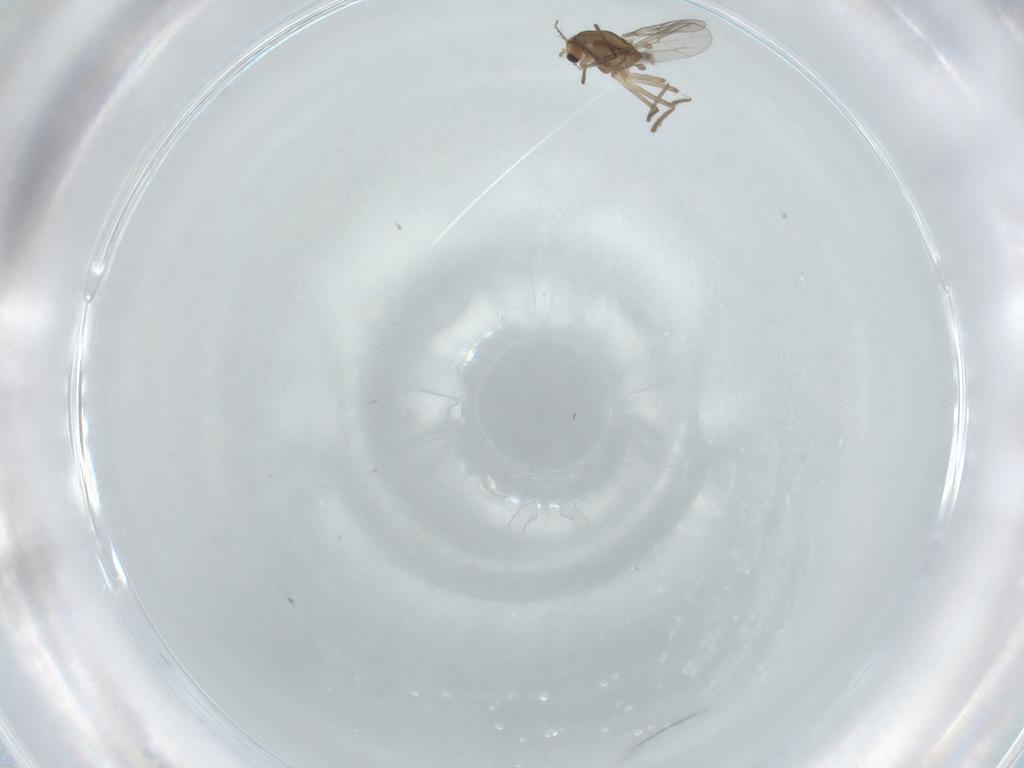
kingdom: Animalia
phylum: Arthropoda
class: Insecta
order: Diptera
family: Chironomidae
